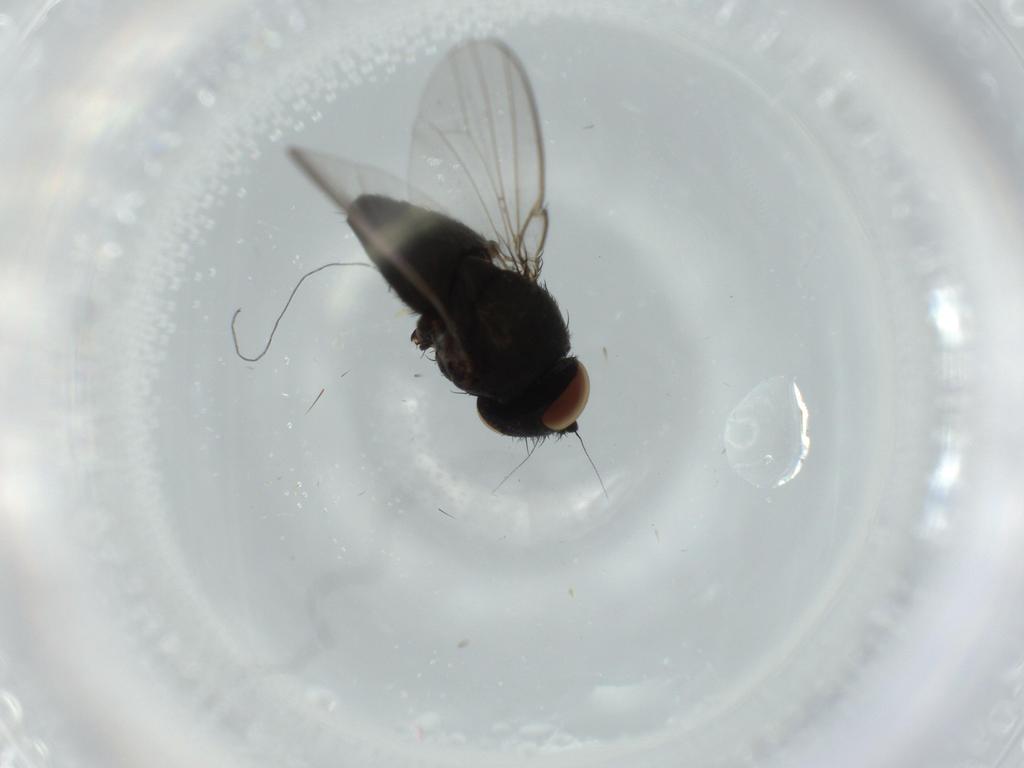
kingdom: Animalia
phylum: Arthropoda
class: Insecta
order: Diptera
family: Milichiidae
